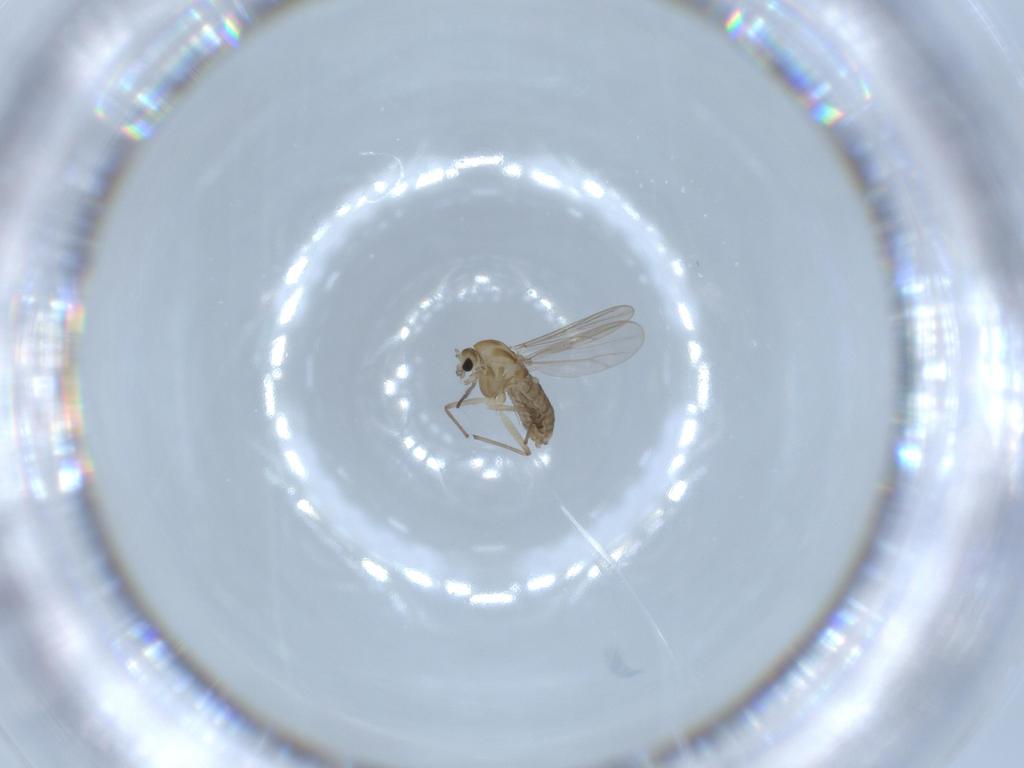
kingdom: Animalia
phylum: Arthropoda
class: Insecta
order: Diptera
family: Chironomidae
